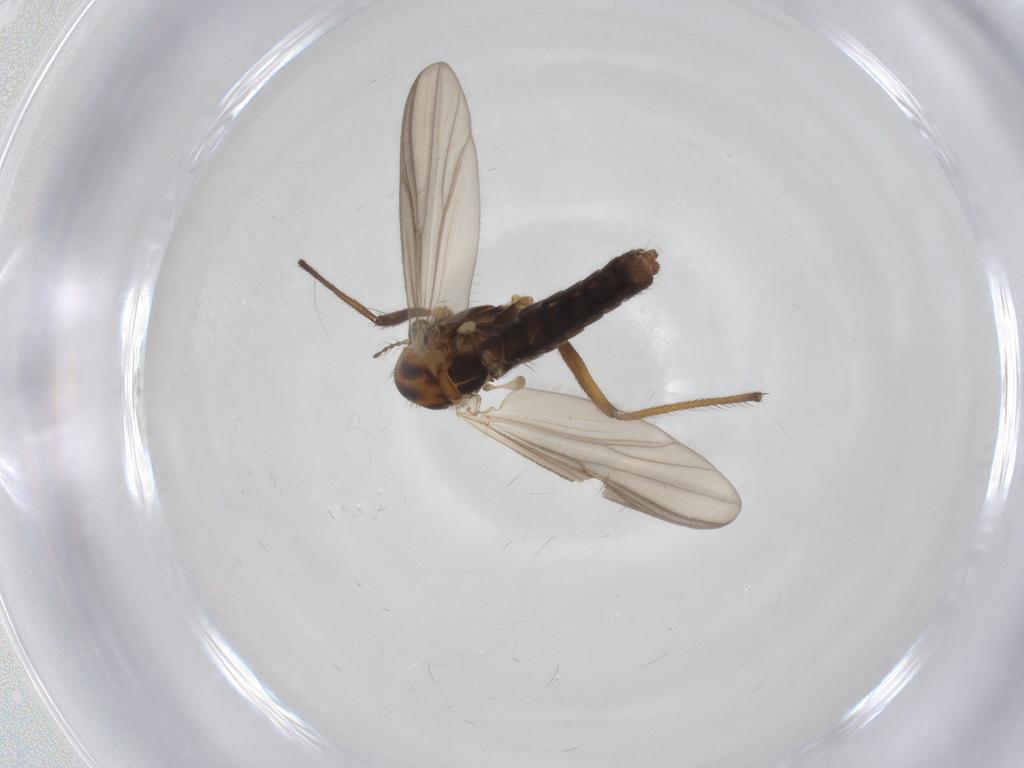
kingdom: Animalia
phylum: Arthropoda
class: Insecta
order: Diptera
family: Chironomidae
